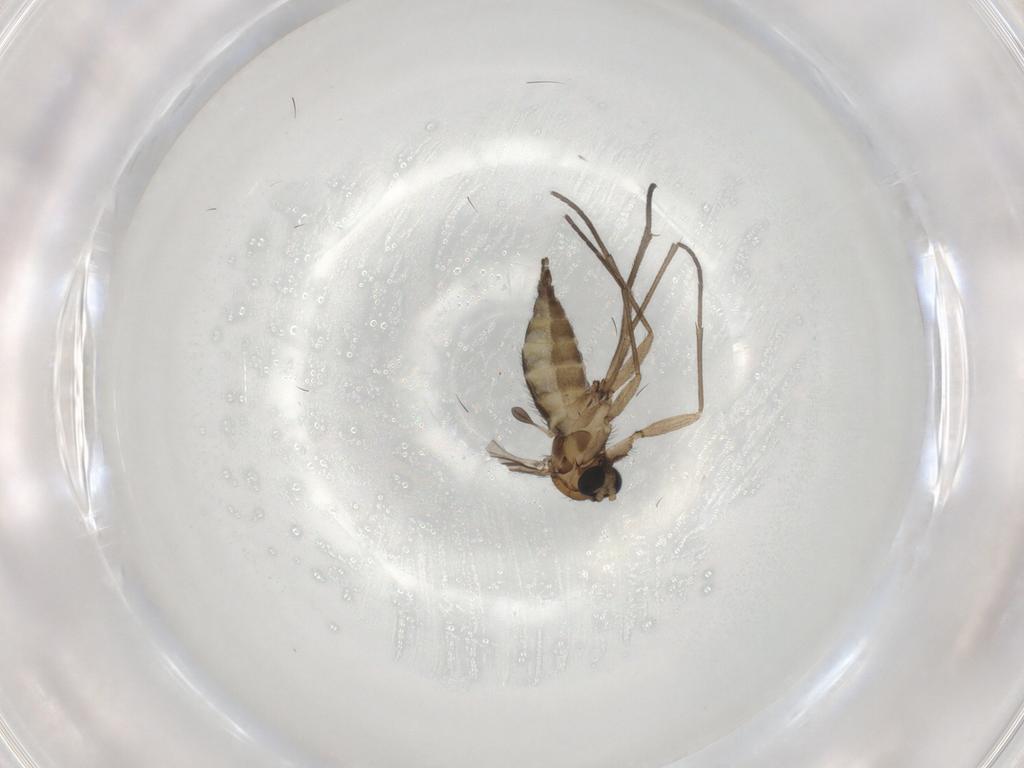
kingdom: Animalia
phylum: Arthropoda
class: Insecta
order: Diptera
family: Sciaridae
